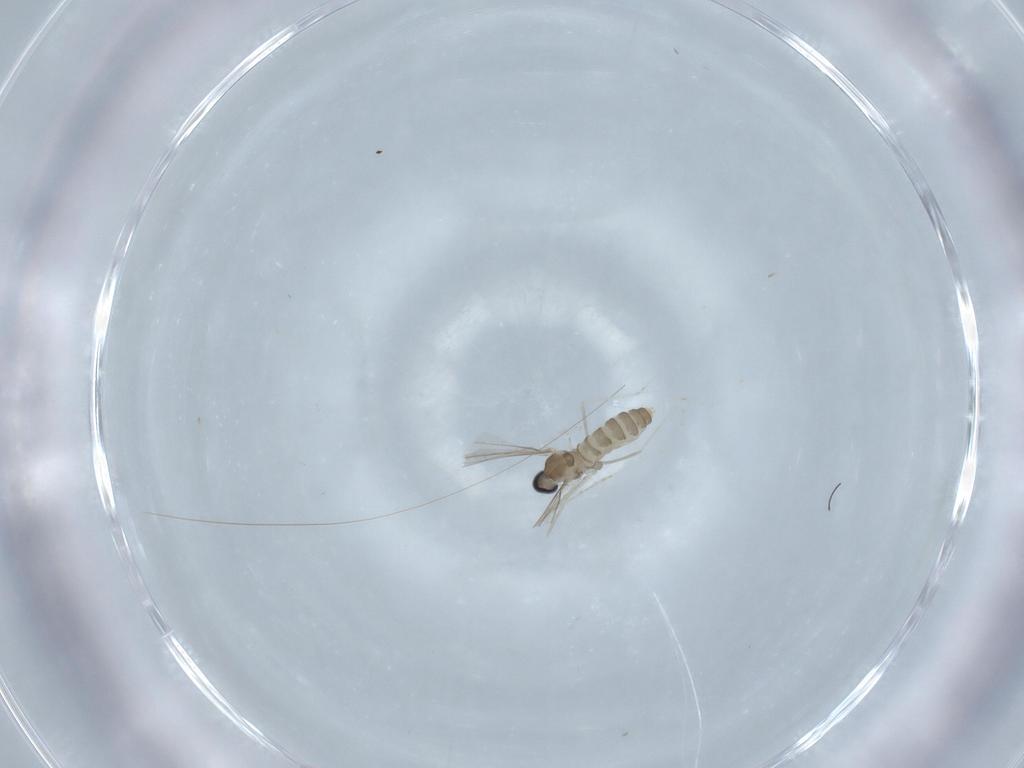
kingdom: Animalia
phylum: Arthropoda
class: Insecta
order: Diptera
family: Cecidomyiidae
